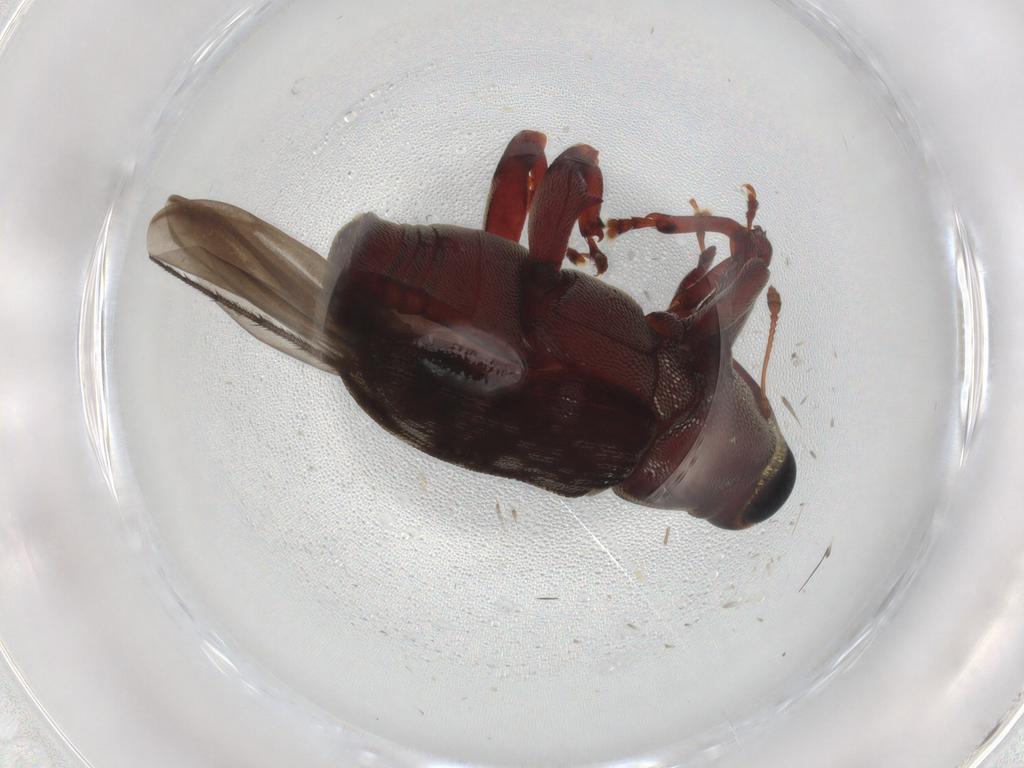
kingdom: Animalia
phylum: Arthropoda
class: Insecta
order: Coleoptera
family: Curculionidae
